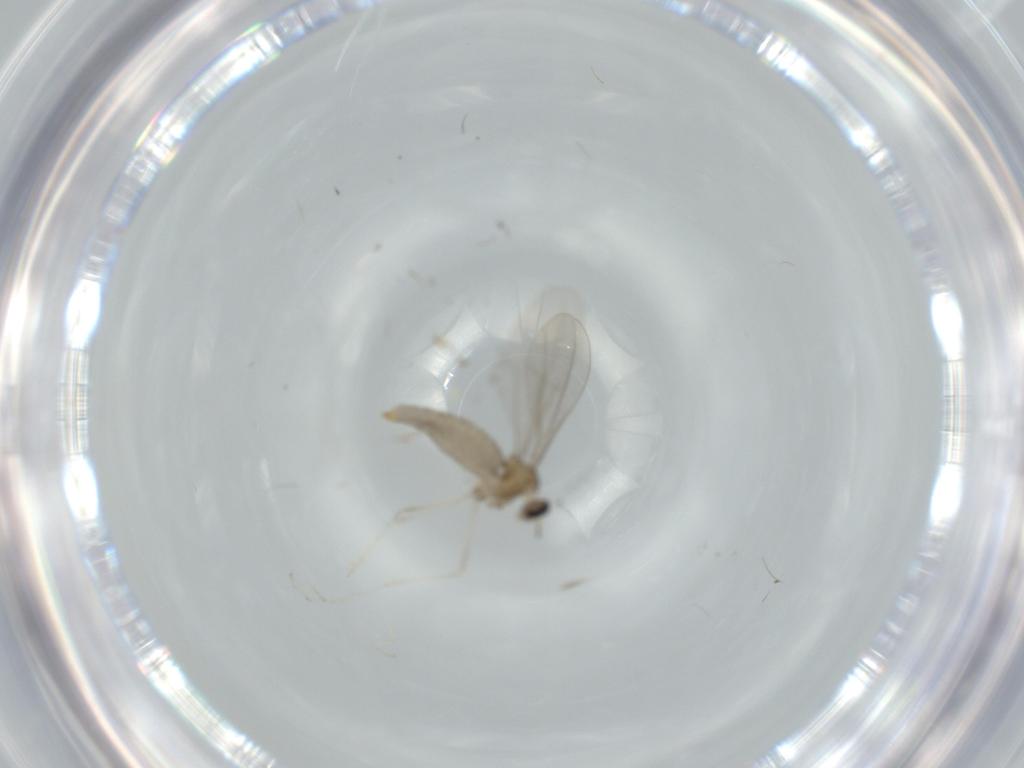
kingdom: Animalia
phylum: Arthropoda
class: Insecta
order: Diptera
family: Cecidomyiidae
